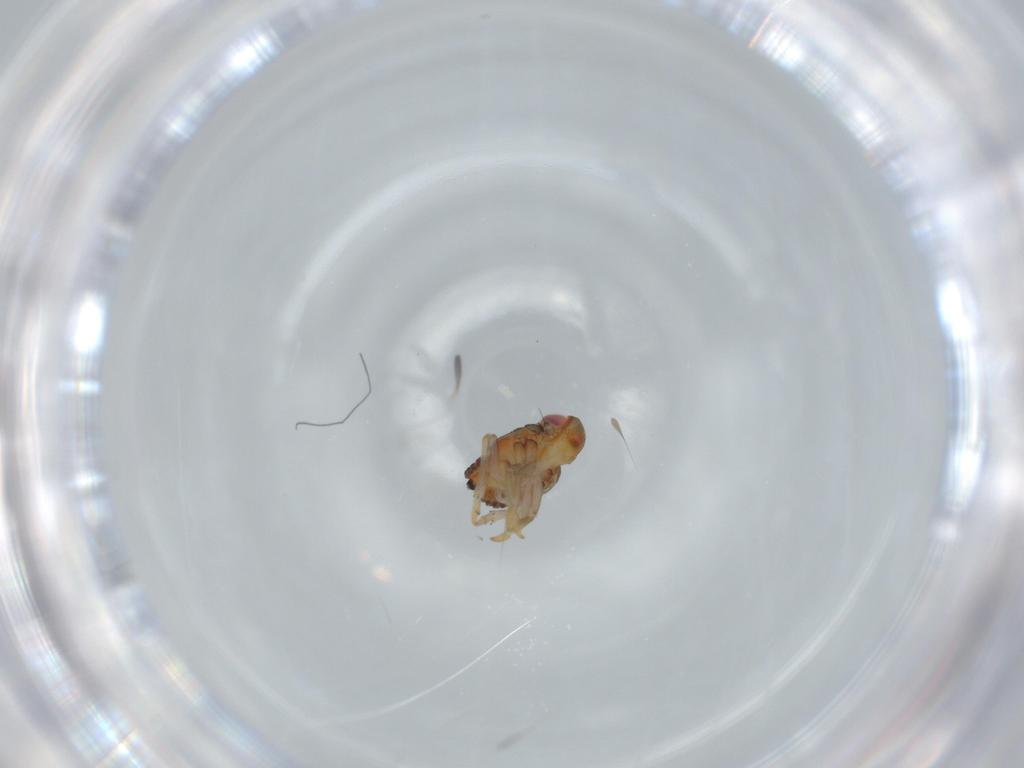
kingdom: Animalia
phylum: Arthropoda
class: Insecta
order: Hemiptera
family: Issidae
